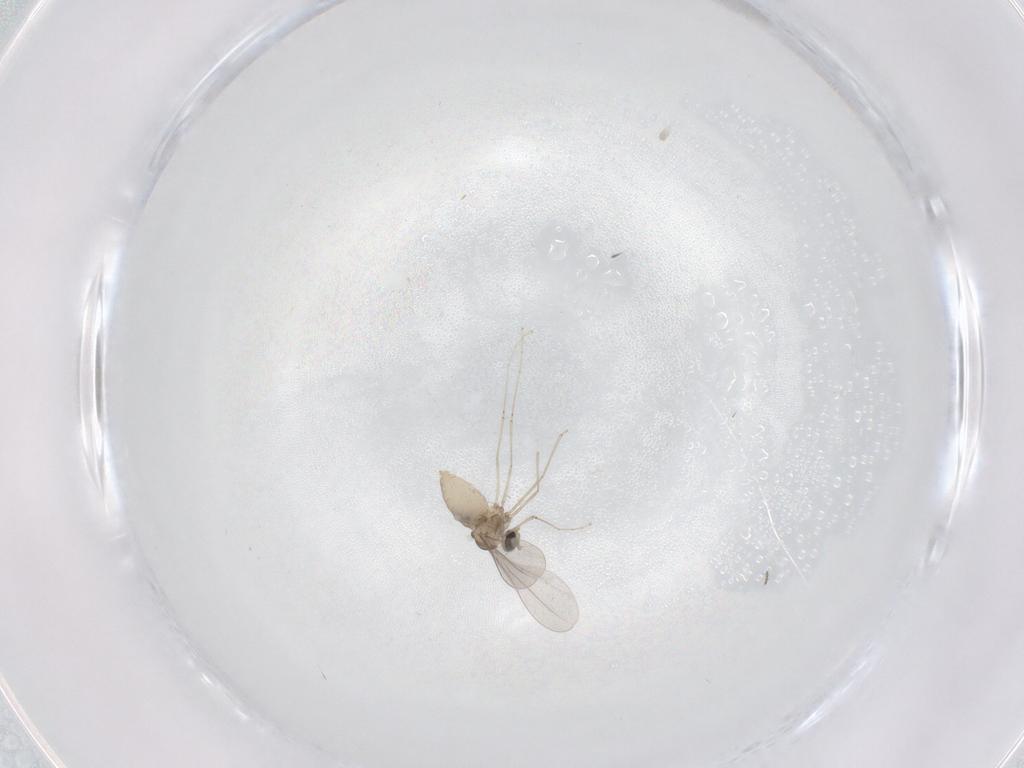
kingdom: Animalia
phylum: Arthropoda
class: Insecta
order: Diptera
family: Chironomidae
